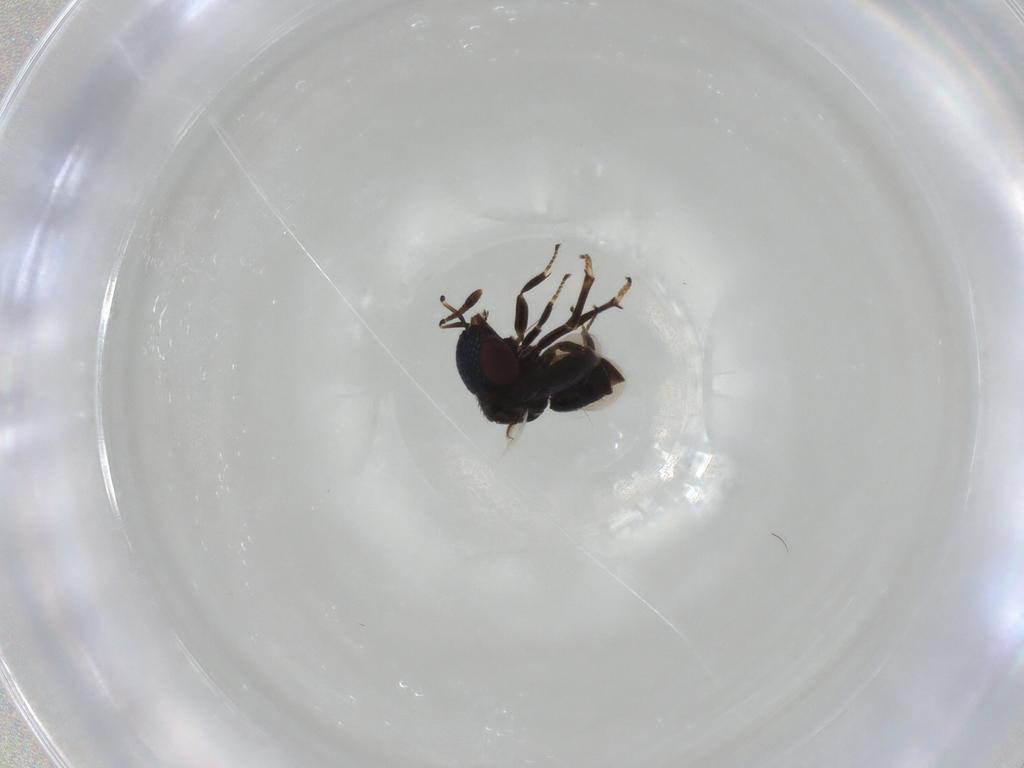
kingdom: Animalia
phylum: Arthropoda
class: Insecta
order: Hymenoptera
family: Encyrtidae
